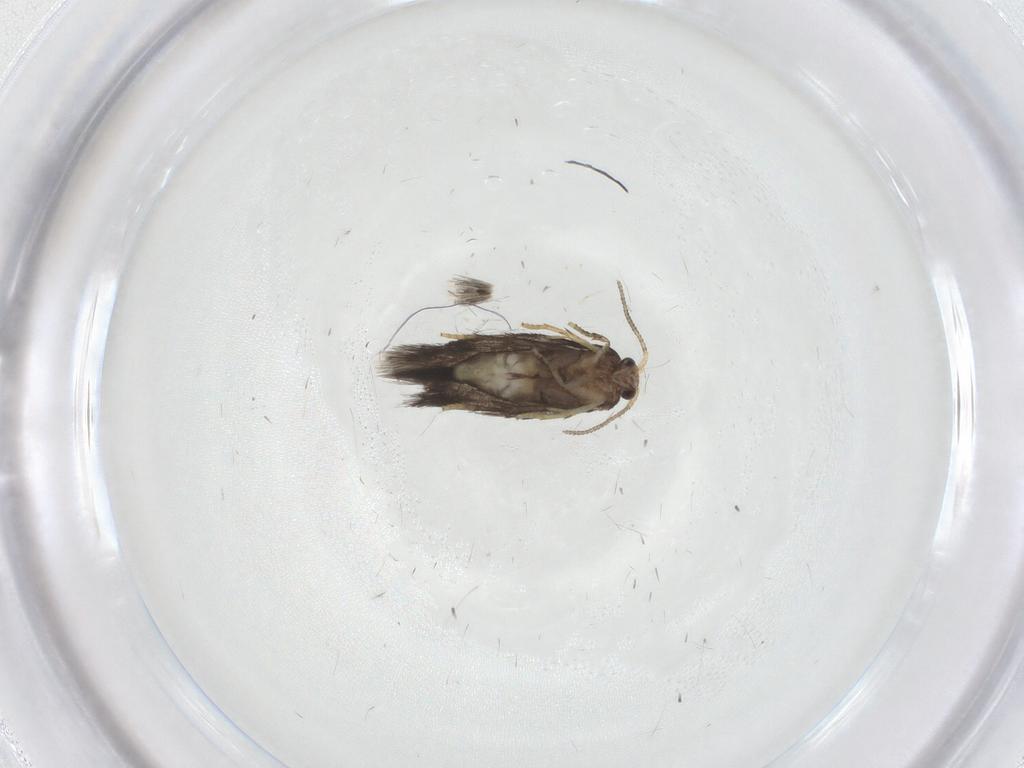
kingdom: Animalia
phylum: Arthropoda
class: Insecta
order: Lepidoptera
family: Nepticulidae
